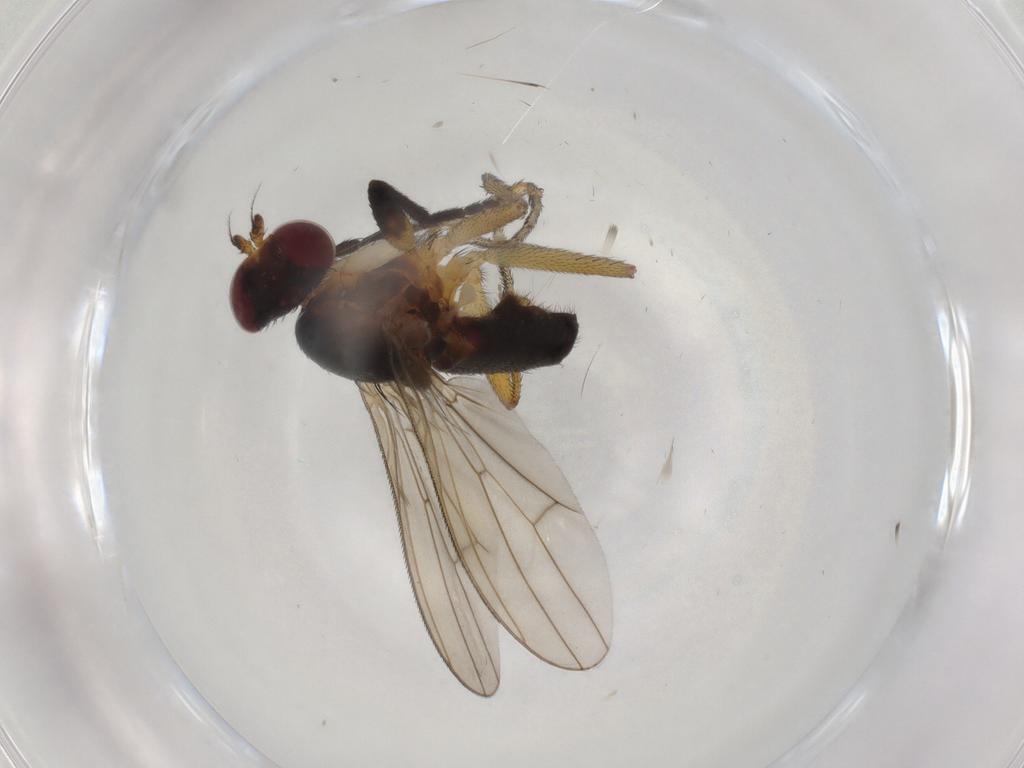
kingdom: Animalia
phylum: Arthropoda
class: Insecta
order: Diptera
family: Sciomyzidae
